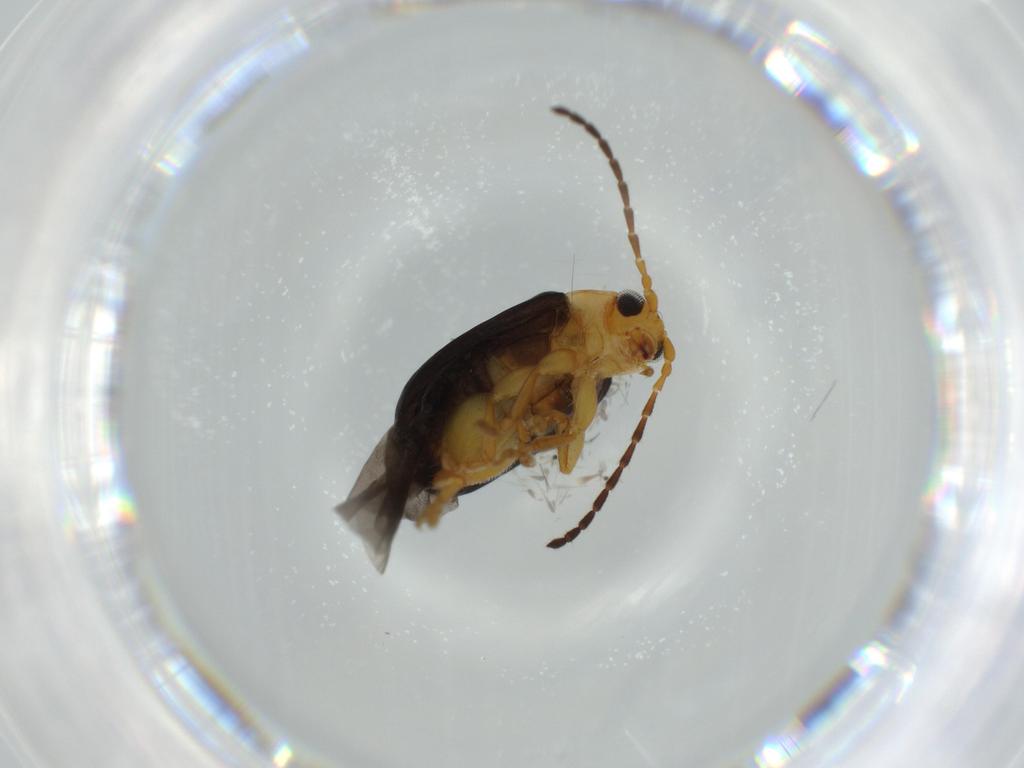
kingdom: Animalia
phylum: Arthropoda
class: Insecta
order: Coleoptera
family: Chrysomelidae
